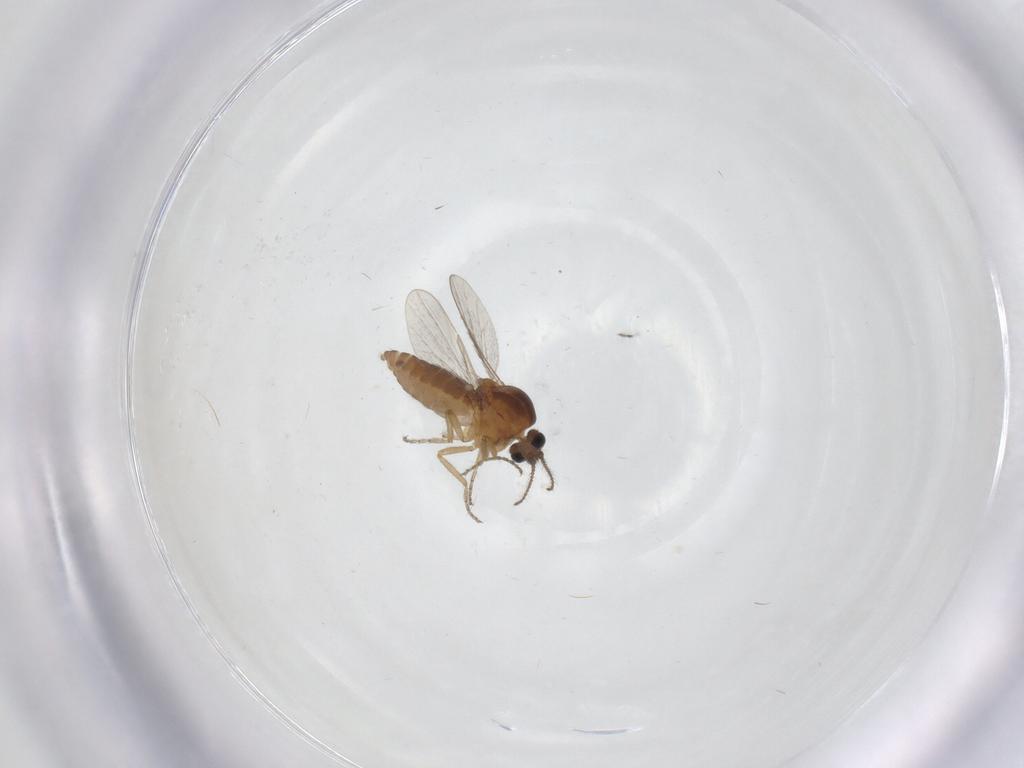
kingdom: Animalia
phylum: Arthropoda
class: Insecta
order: Diptera
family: Ceratopogonidae
